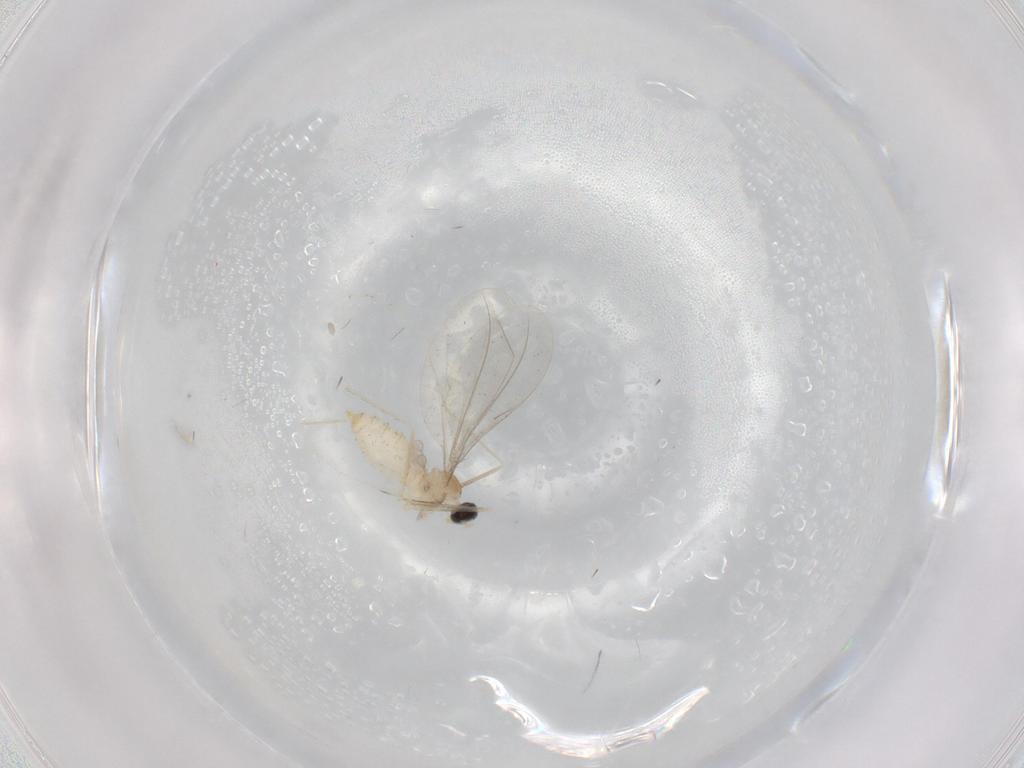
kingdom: Animalia
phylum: Arthropoda
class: Insecta
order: Diptera
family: Cecidomyiidae
